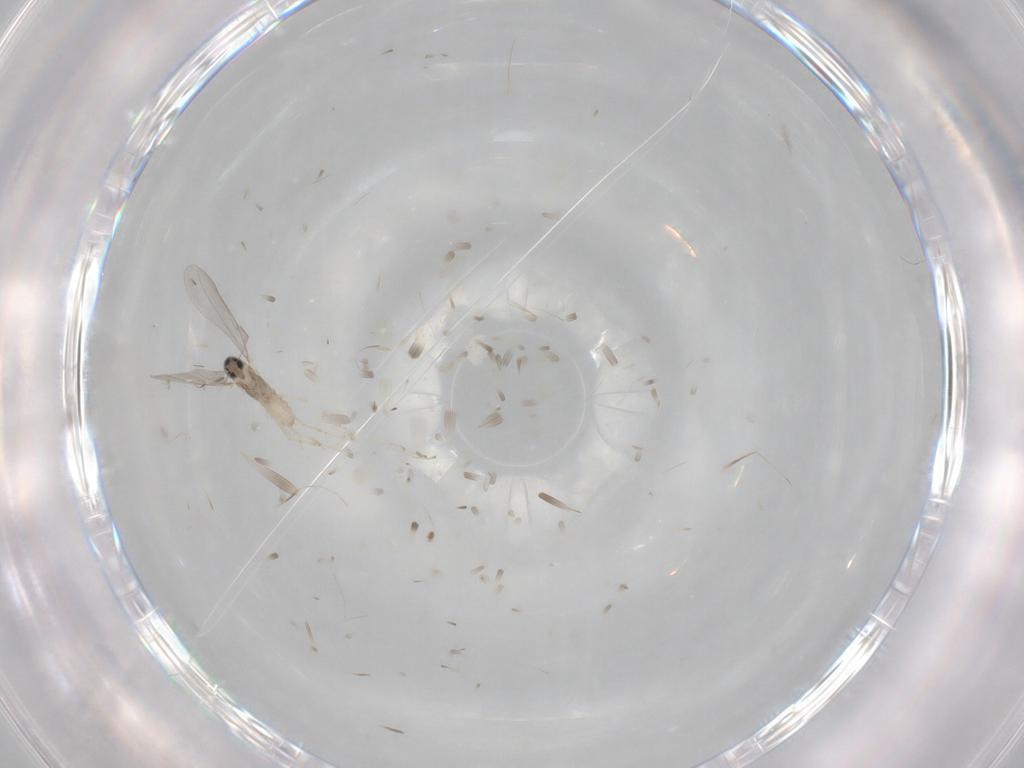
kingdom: Animalia
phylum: Arthropoda
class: Insecta
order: Diptera
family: Cecidomyiidae
